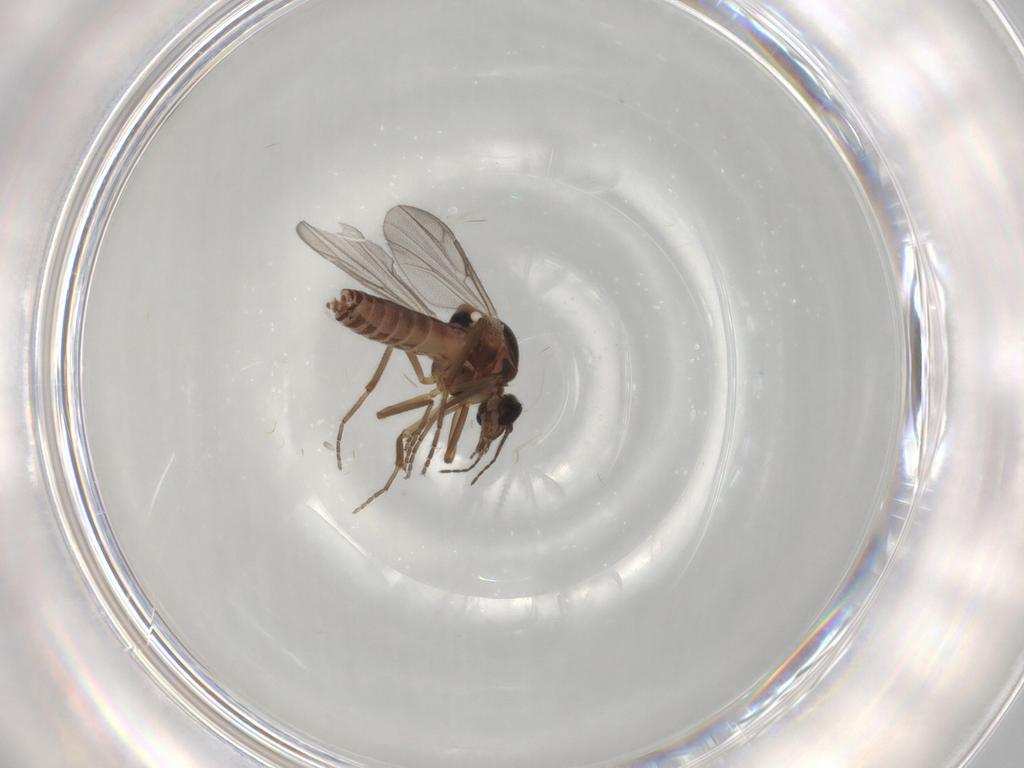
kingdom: Animalia
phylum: Arthropoda
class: Insecta
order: Diptera
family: Ceratopogonidae
